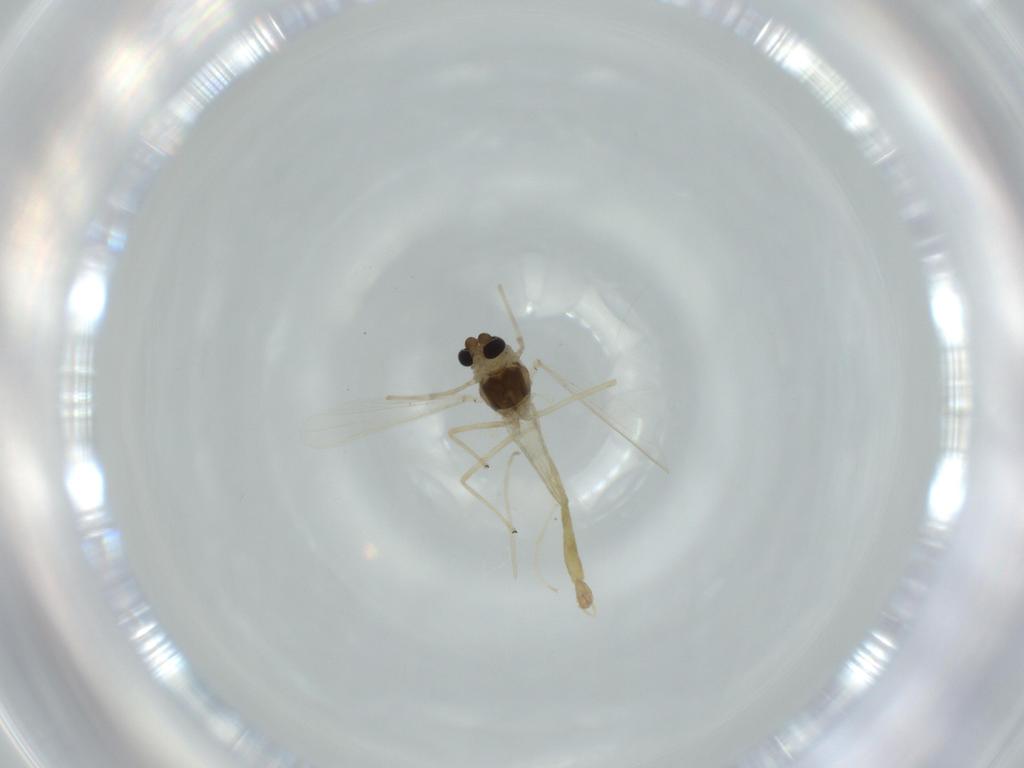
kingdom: Animalia
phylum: Arthropoda
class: Insecta
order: Diptera
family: Chironomidae
